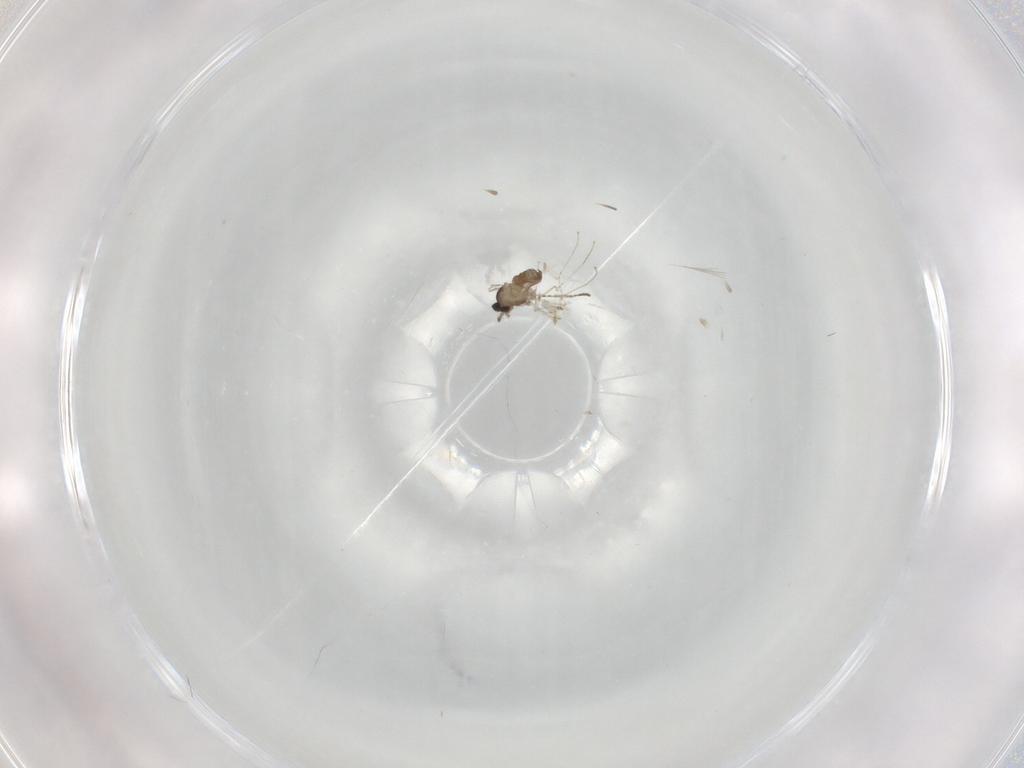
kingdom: Animalia
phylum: Arthropoda
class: Insecta
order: Diptera
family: Cecidomyiidae
